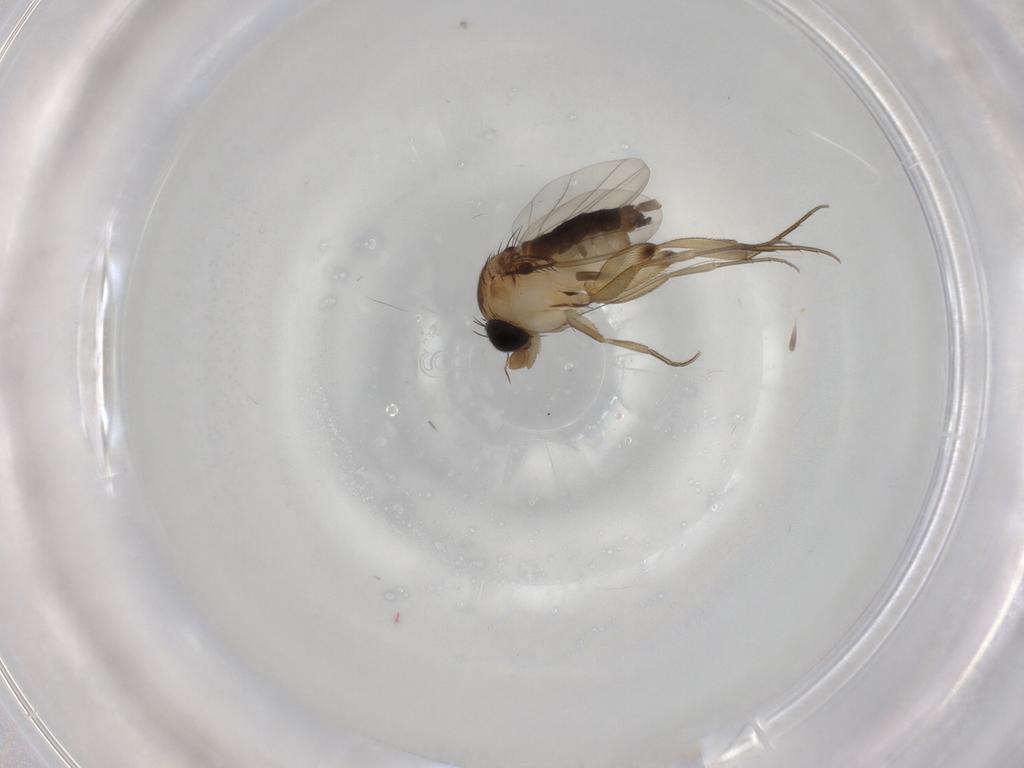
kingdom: Animalia
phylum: Arthropoda
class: Insecta
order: Diptera
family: Phoridae
